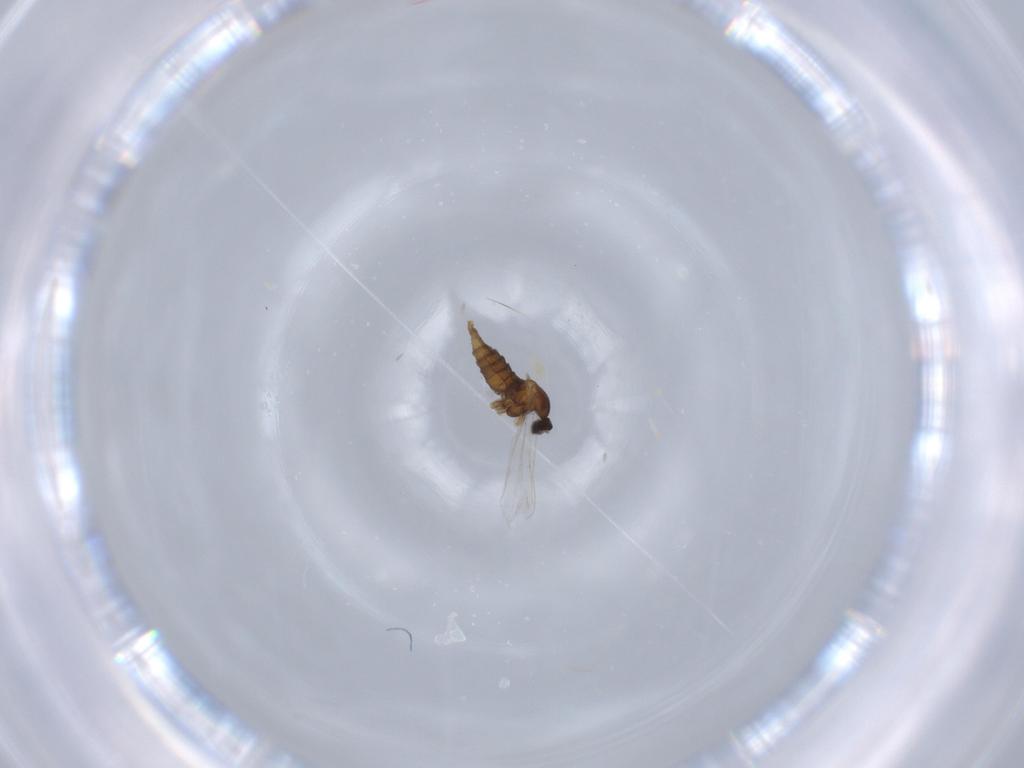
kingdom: Animalia
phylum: Arthropoda
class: Insecta
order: Diptera
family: Cecidomyiidae
